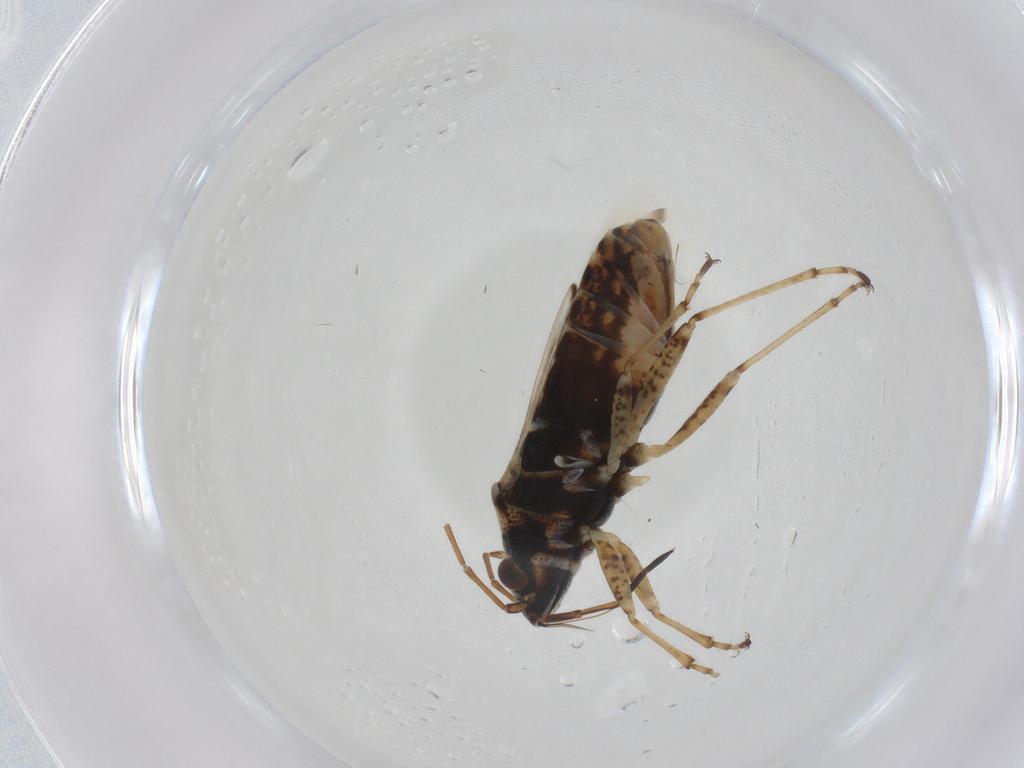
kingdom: Animalia
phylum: Arthropoda
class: Insecta
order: Hemiptera
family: Lygaeidae
